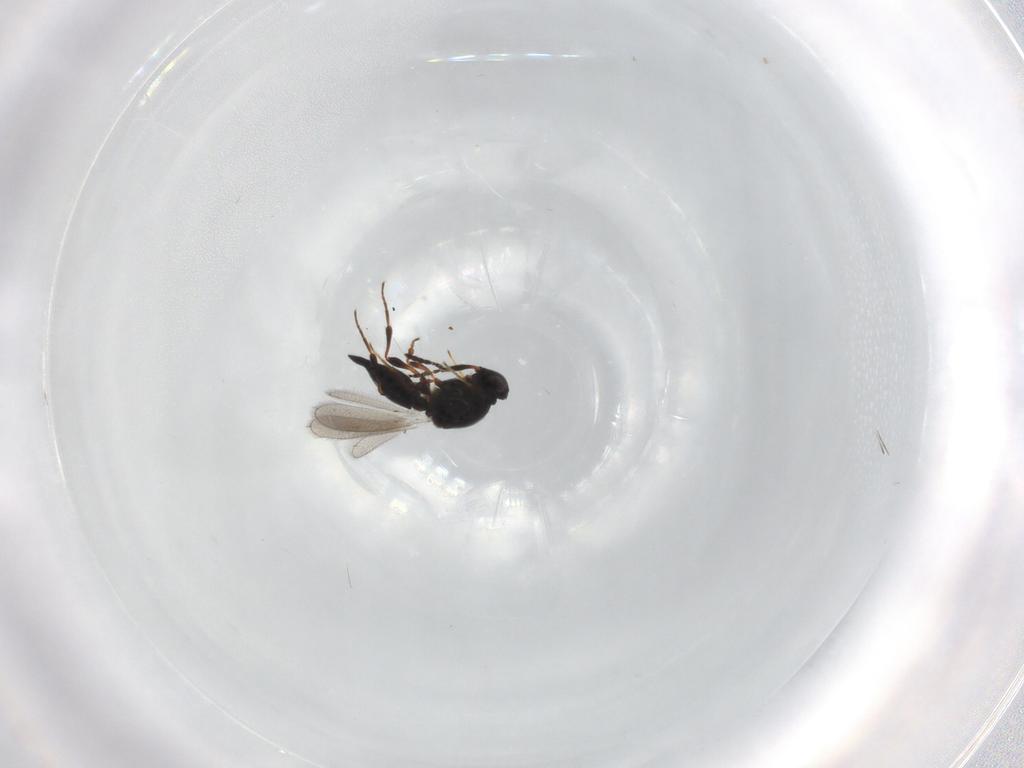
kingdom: Animalia
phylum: Arthropoda
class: Insecta
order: Hymenoptera
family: Platygastridae
